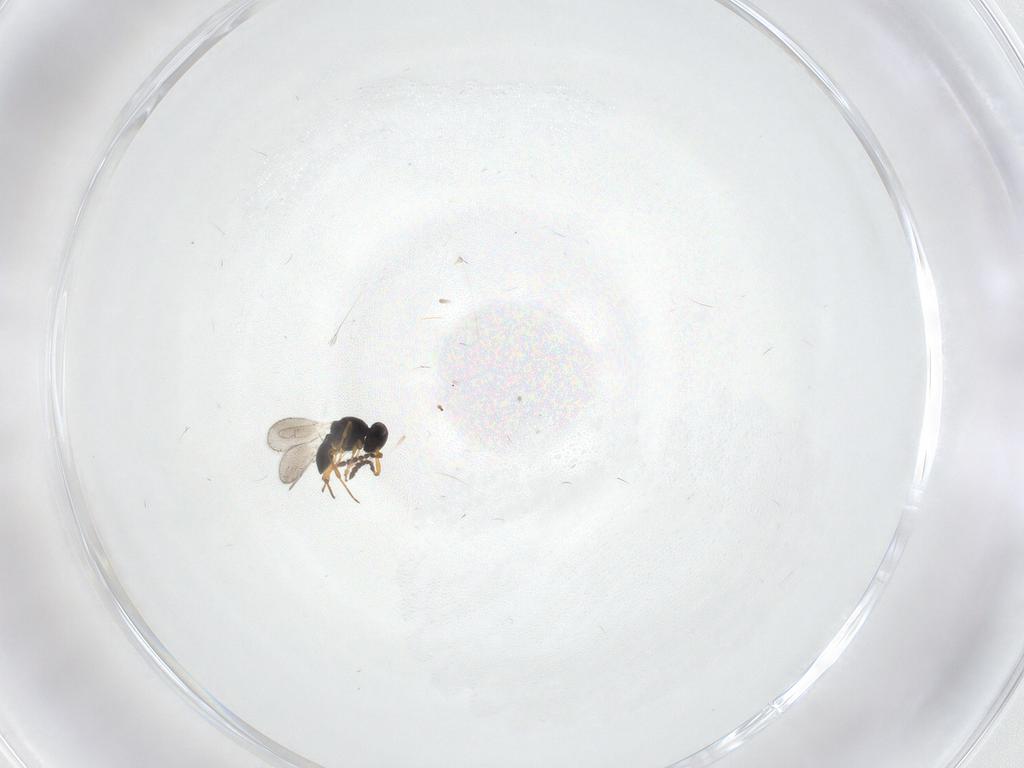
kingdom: Animalia
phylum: Arthropoda
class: Insecta
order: Hymenoptera
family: Platygastridae
